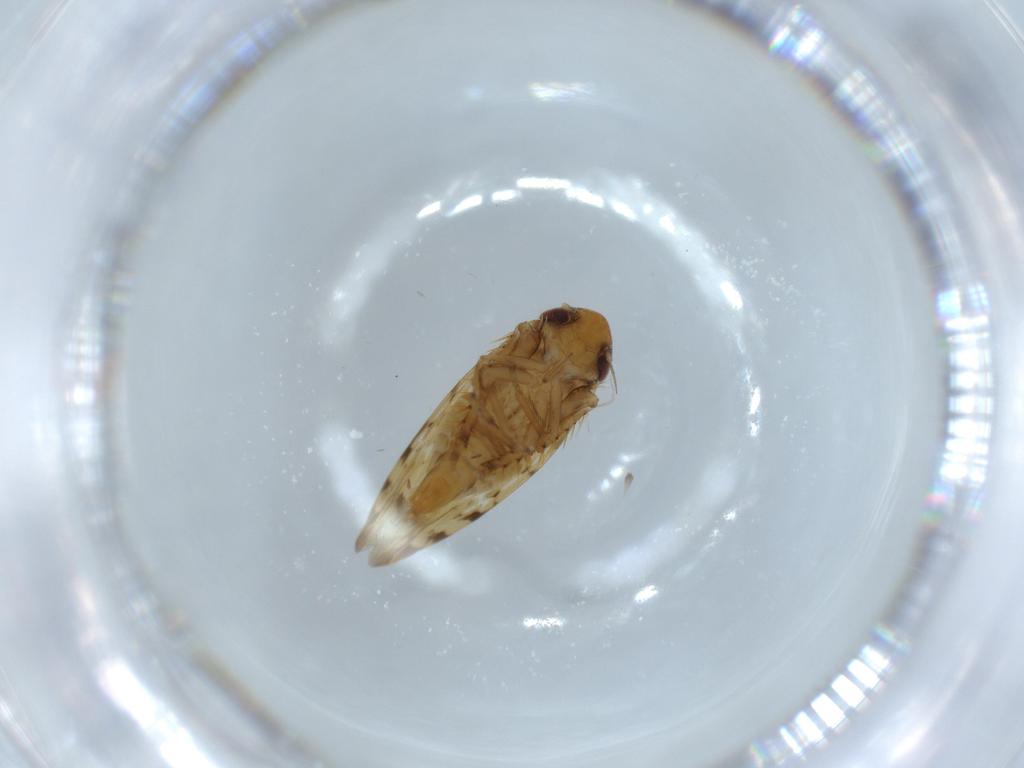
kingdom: Animalia
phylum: Arthropoda
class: Insecta
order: Hemiptera
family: Cicadellidae
